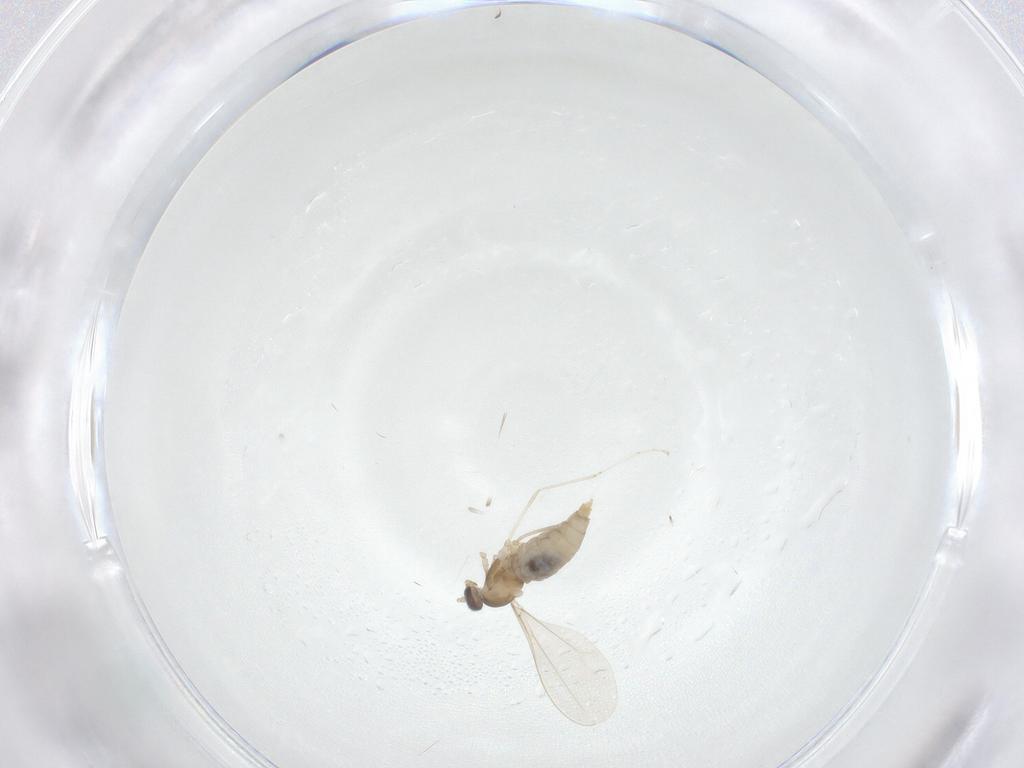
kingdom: Animalia
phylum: Arthropoda
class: Insecta
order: Diptera
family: Cecidomyiidae
